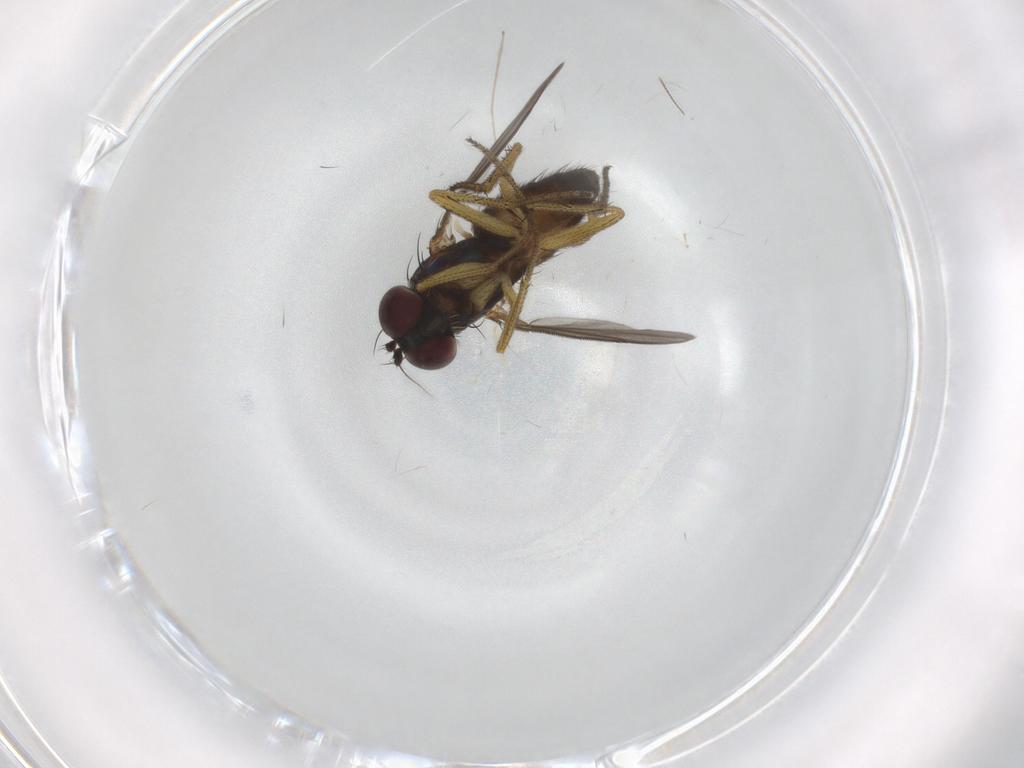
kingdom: Animalia
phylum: Arthropoda
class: Insecta
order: Diptera
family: Cecidomyiidae
